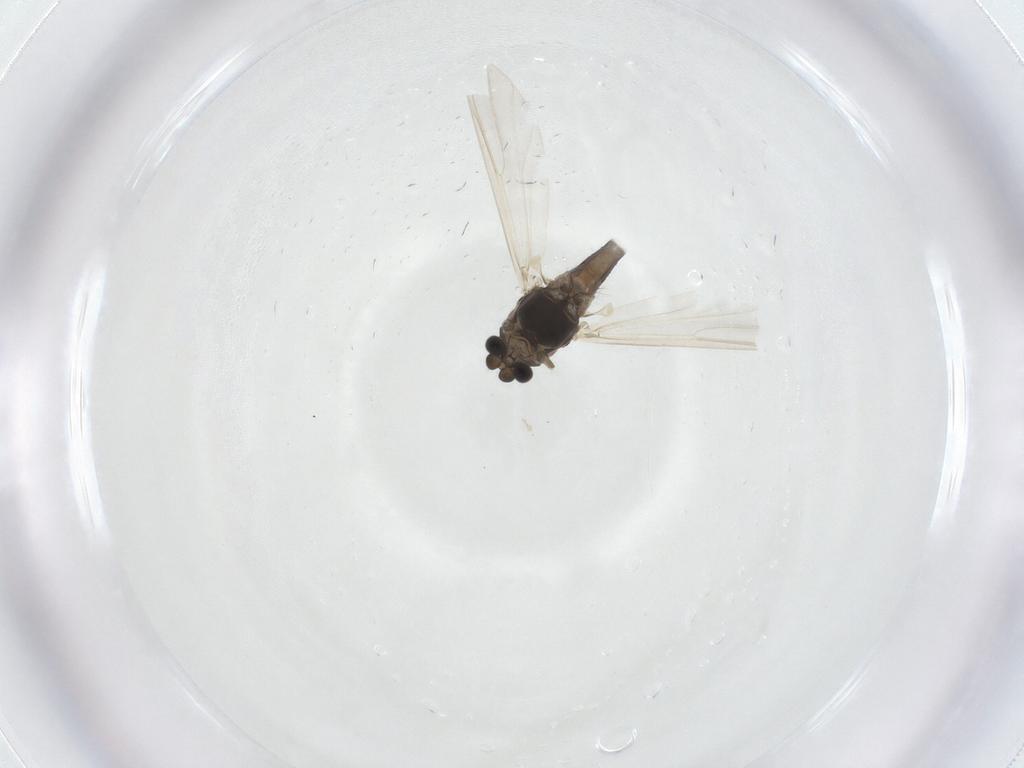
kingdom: Animalia
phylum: Arthropoda
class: Insecta
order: Diptera
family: Chironomidae
